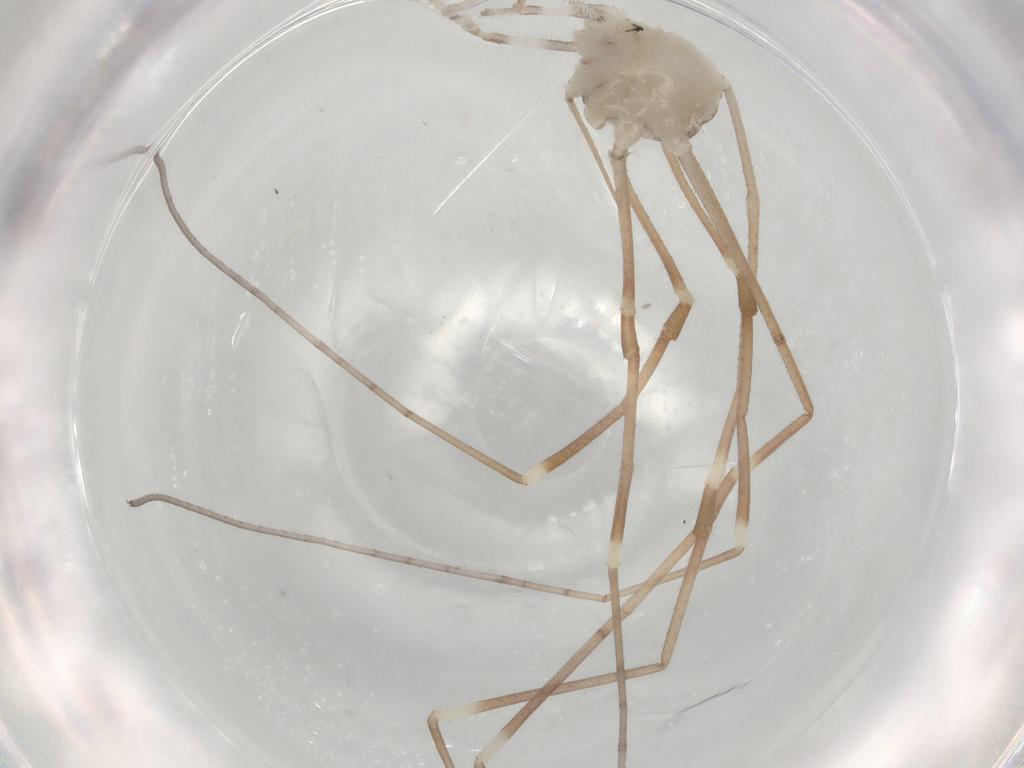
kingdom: Animalia
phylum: Arthropoda
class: Arachnida
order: Opiliones
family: Sclerosomatidae
